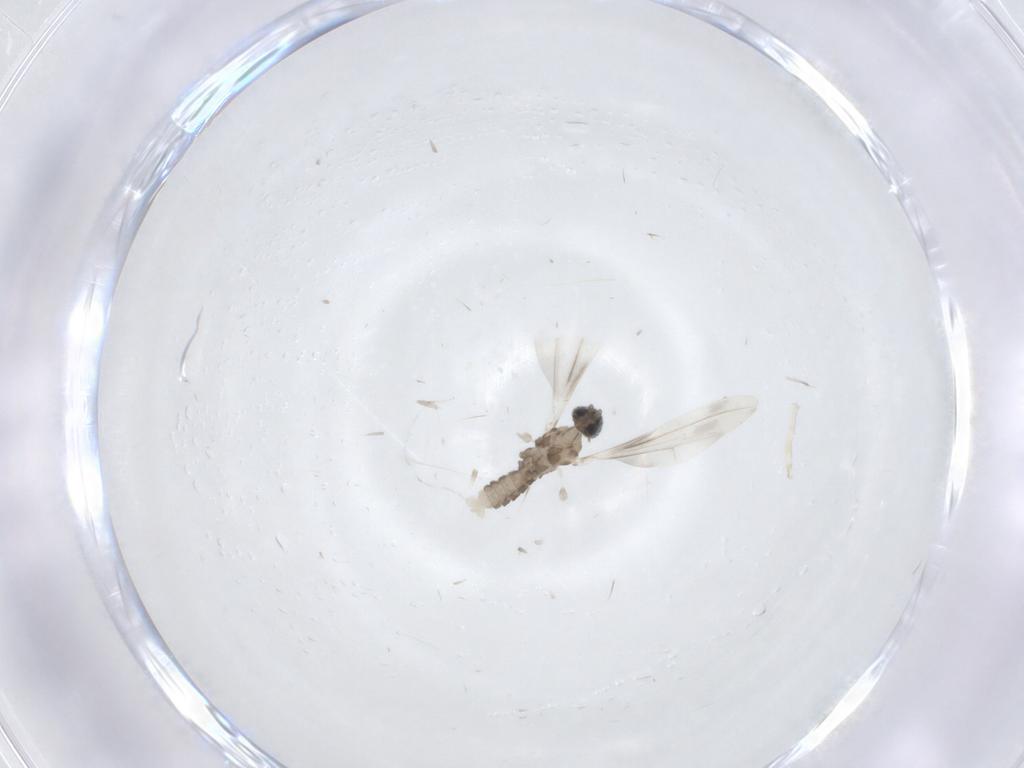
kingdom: Animalia
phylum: Arthropoda
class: Insecta
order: Diptera
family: Cecidomyiidae
